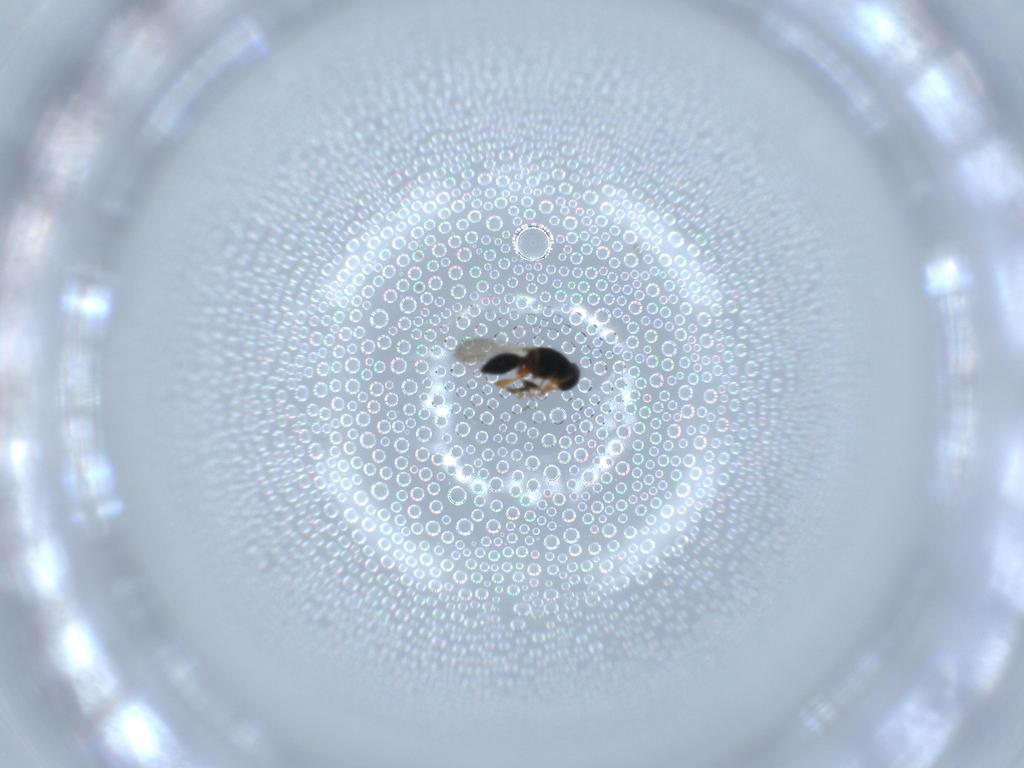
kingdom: Animalia
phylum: Arthropoda
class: Insecta
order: Hymenoptera
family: Platygastridae
